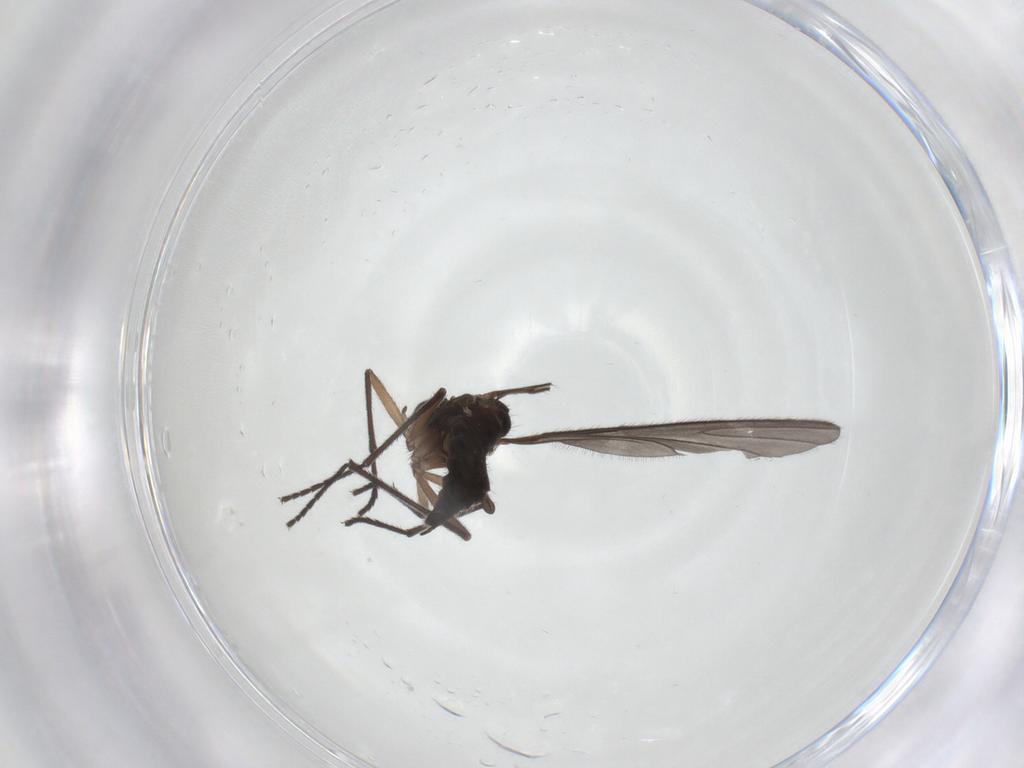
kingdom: Animalia
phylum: Arthropoda
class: Insecta
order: Diptera
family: Sciaridae
